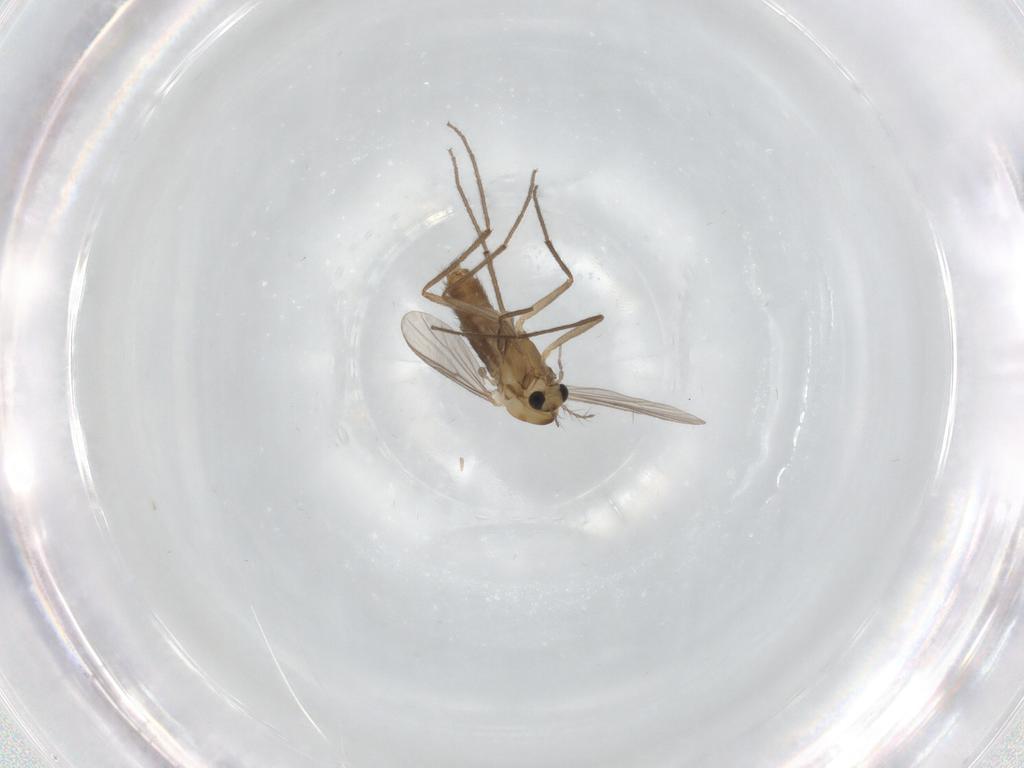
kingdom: Animalia
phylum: Arthropoda
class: Insecta
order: Diptera
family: Chironomidae
